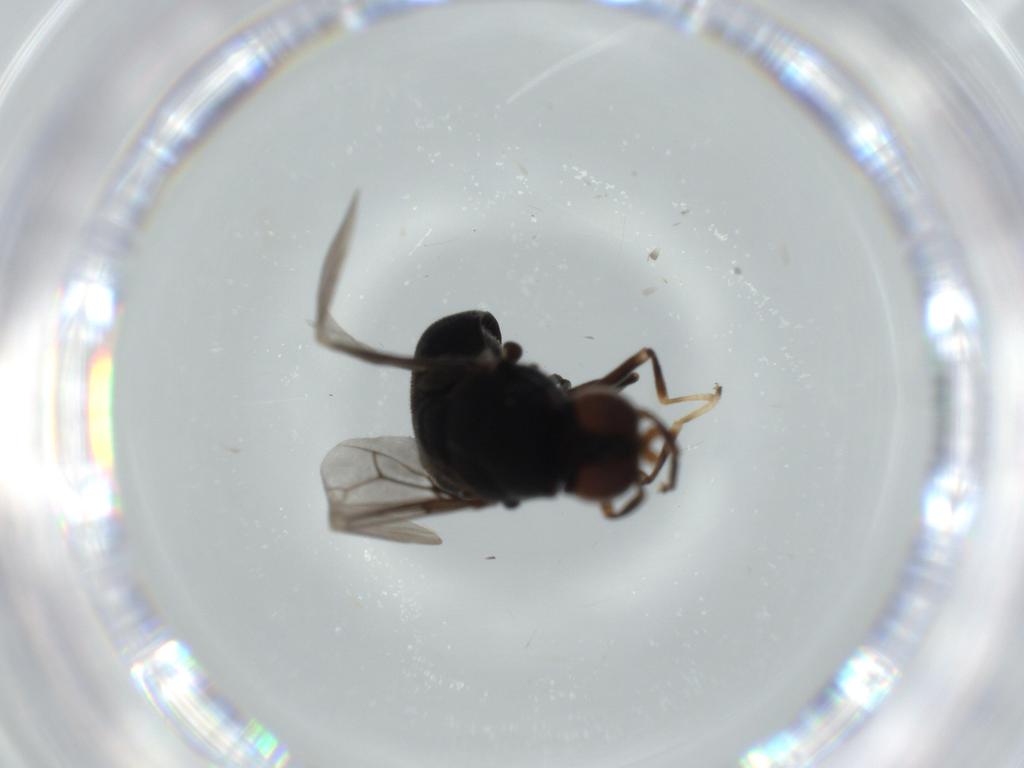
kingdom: Animalia
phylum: Arthropoda
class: Insecta
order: Diptera
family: Stratiomyidae
